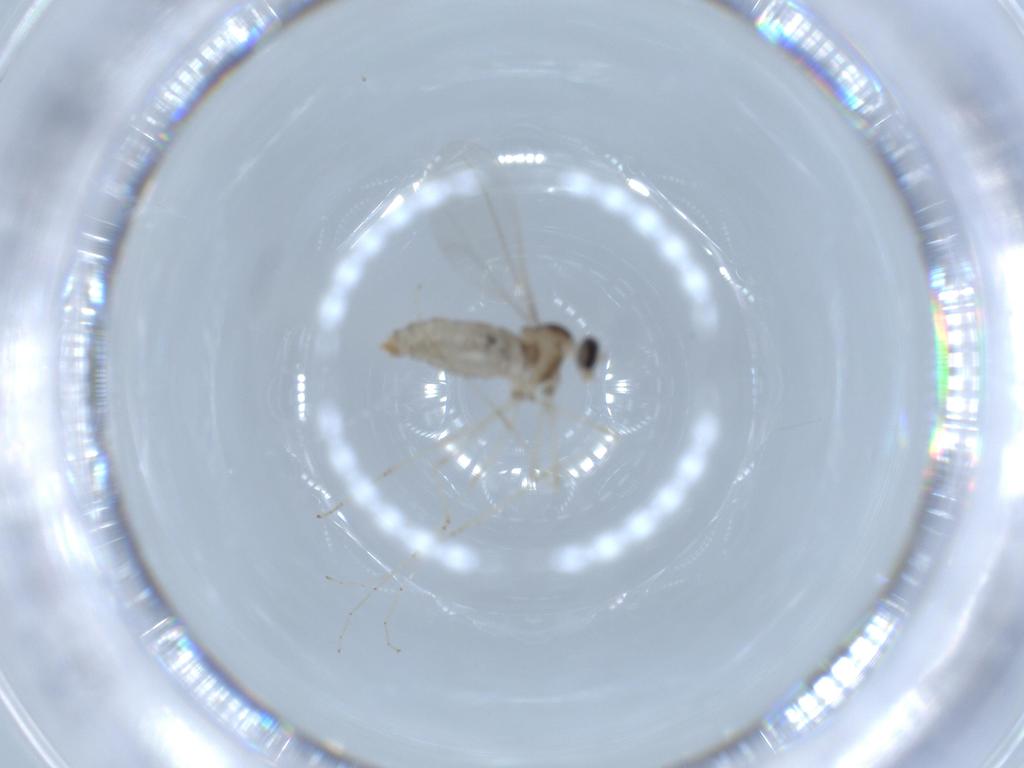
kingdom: Animalia
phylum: Arthropoda
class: Insecta
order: Diptera
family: Cecidomyiidae
